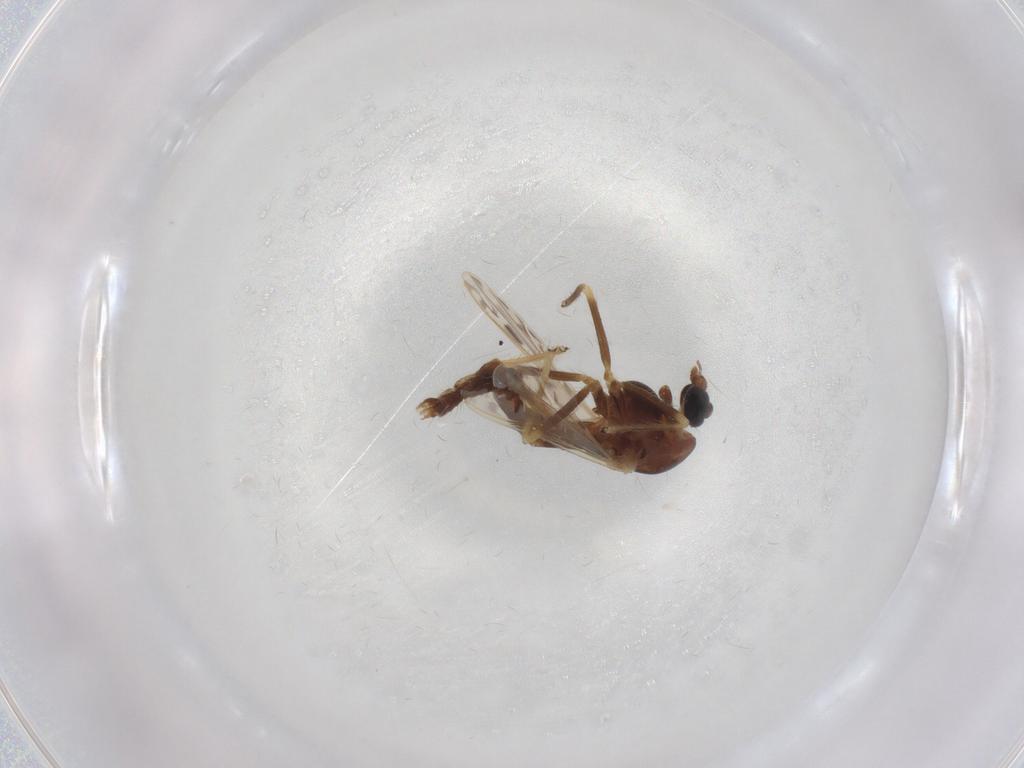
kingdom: Animalia
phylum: Arthropoda
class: Insecta
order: Diptera
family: Chironomidae
